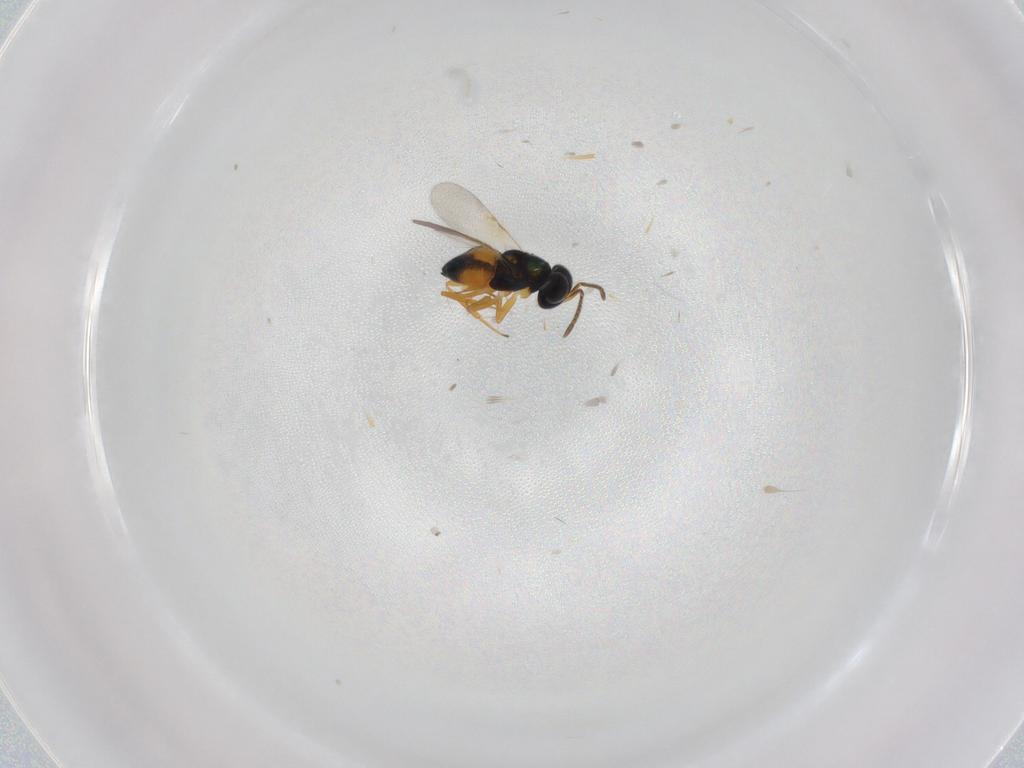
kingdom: Animalia
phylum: Arthropoda
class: Insecta
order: Hymenoptera
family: Encyrtidae
